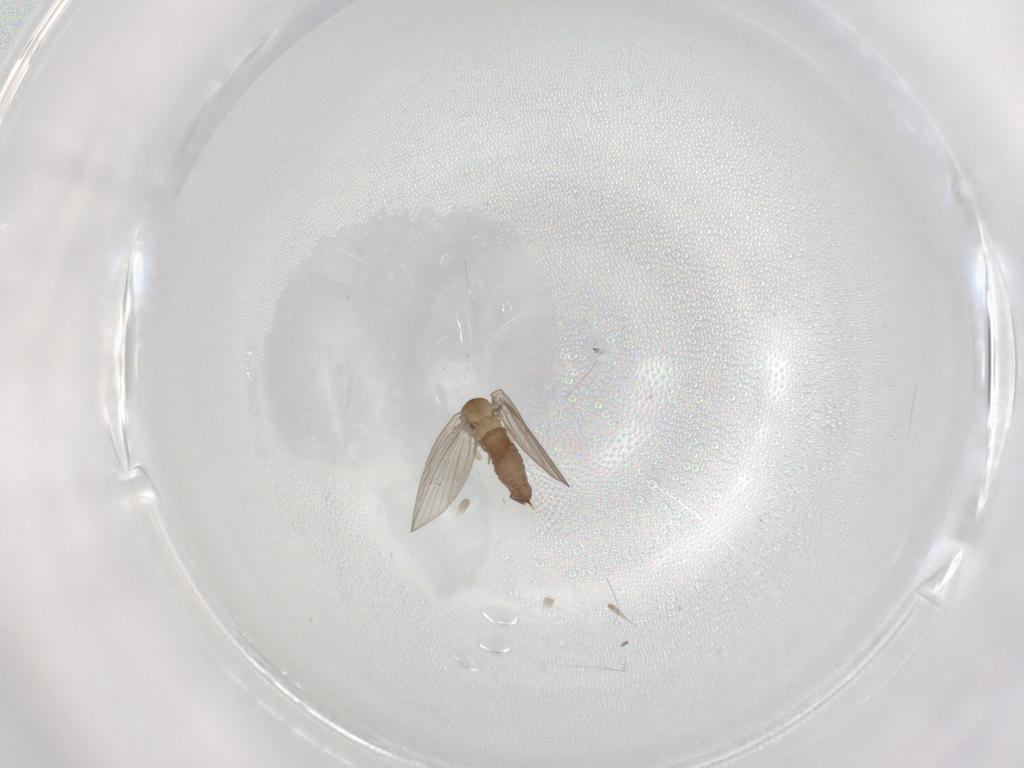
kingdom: Animalia
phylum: Arthropoda
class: Insecta
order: Diptera
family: Psychodidae
